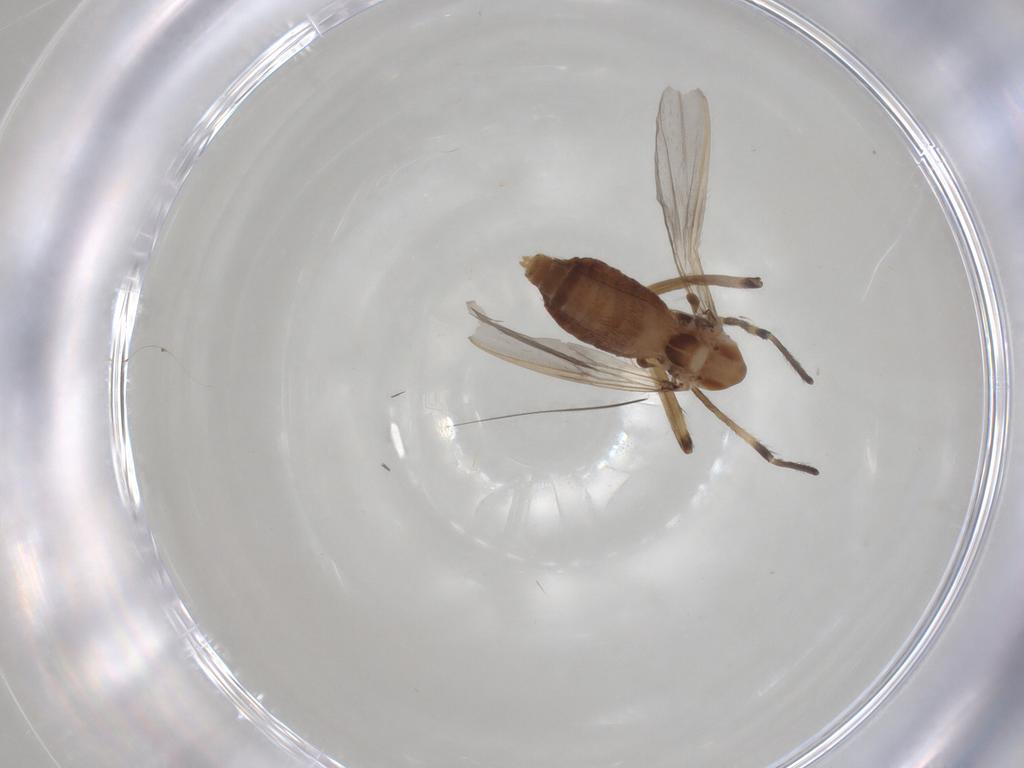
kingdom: Animalia
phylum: Arthropoda
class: Insecta
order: Diptera
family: Chironomidae
